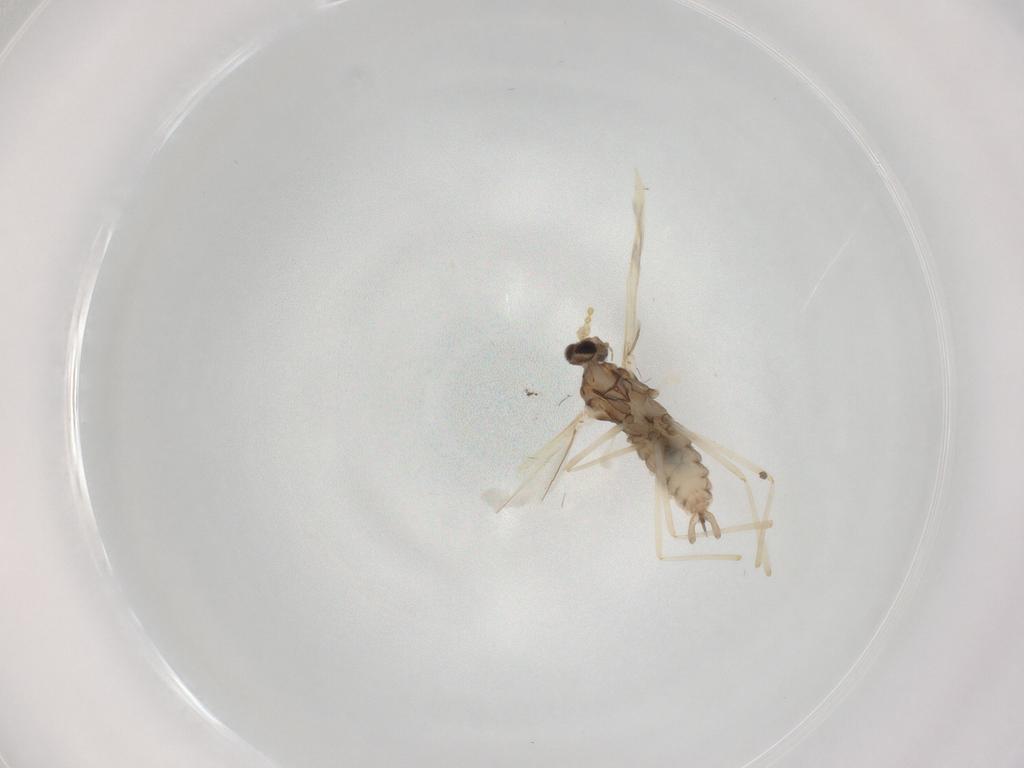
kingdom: Animalia
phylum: Arthropoda
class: Insecta
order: Diptera
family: Cecidomyiidae
